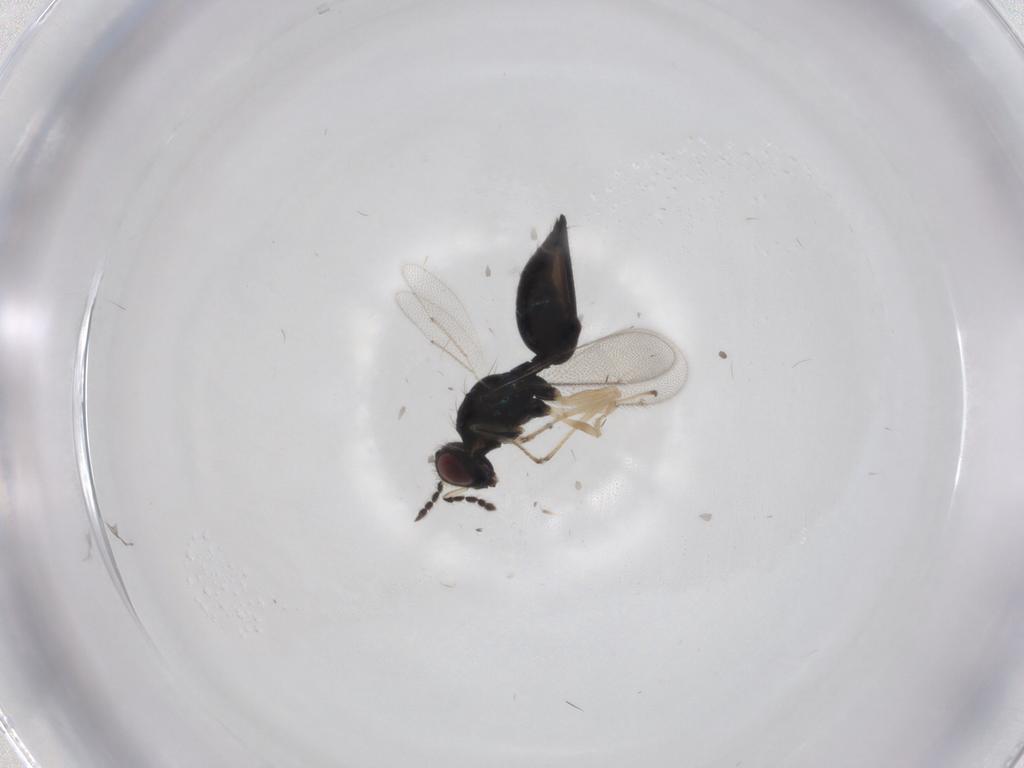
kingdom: Animalia
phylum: Arthropoda
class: Insecta
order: Hymenoptera
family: Eulophidae
